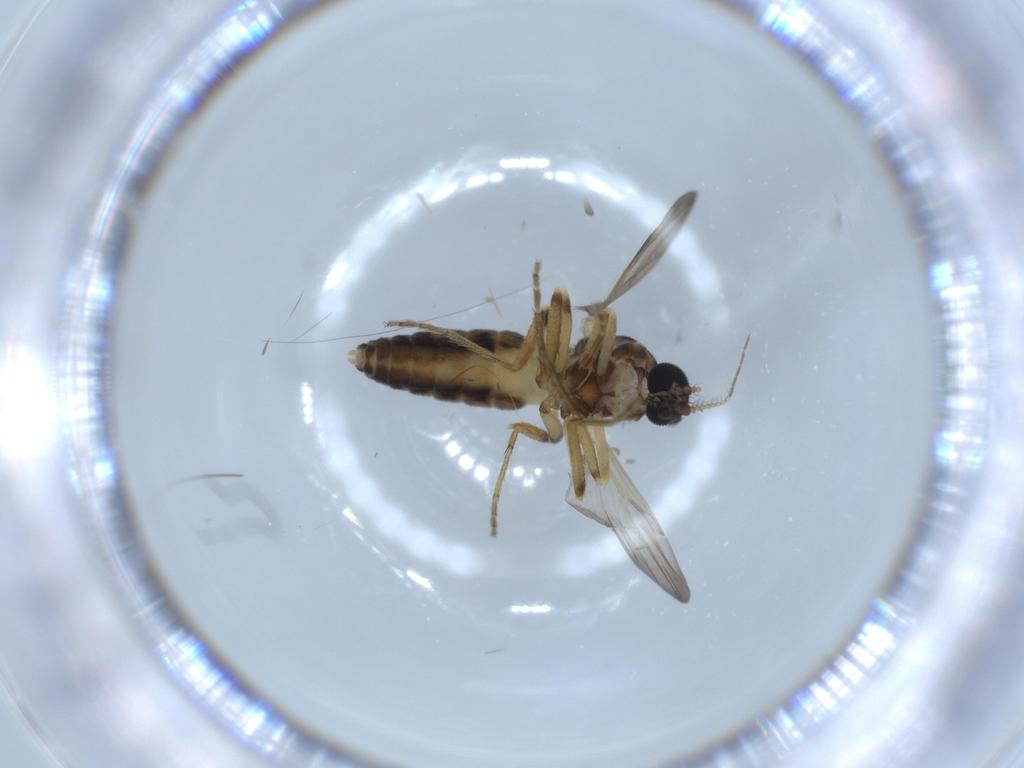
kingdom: Animalia
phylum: Arthropoda
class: Insecta
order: Diptera
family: Ceratopogonidae
